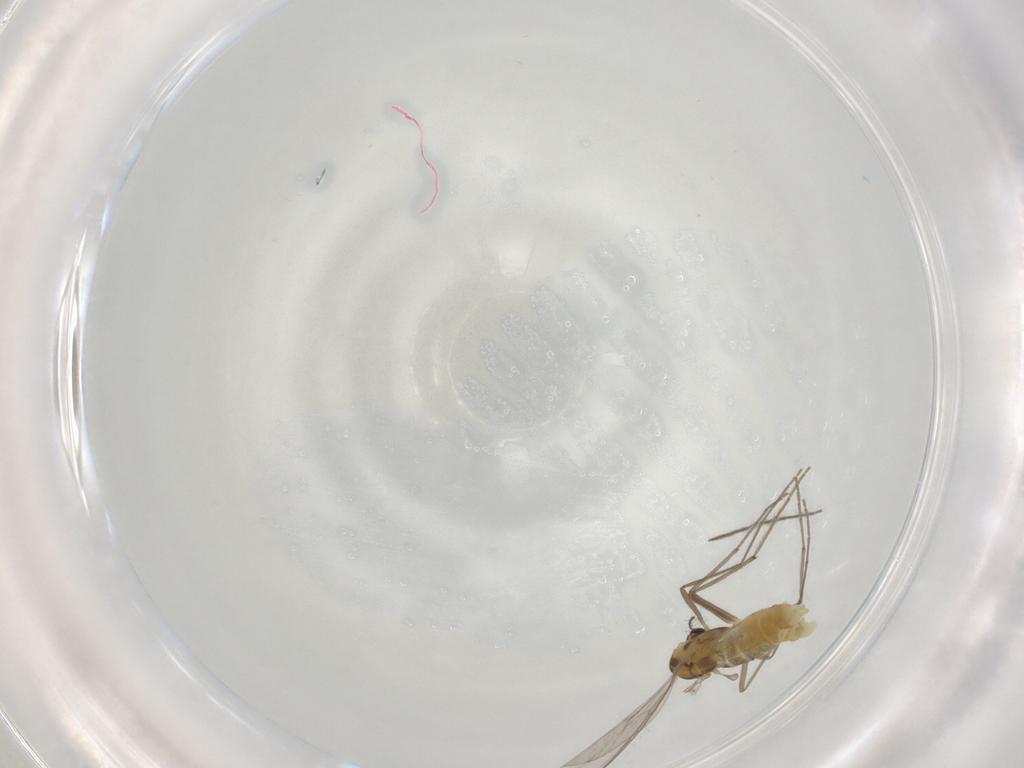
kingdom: Animalia
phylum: Arthropoda
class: Insecta
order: Diptera
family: Chironomidae
